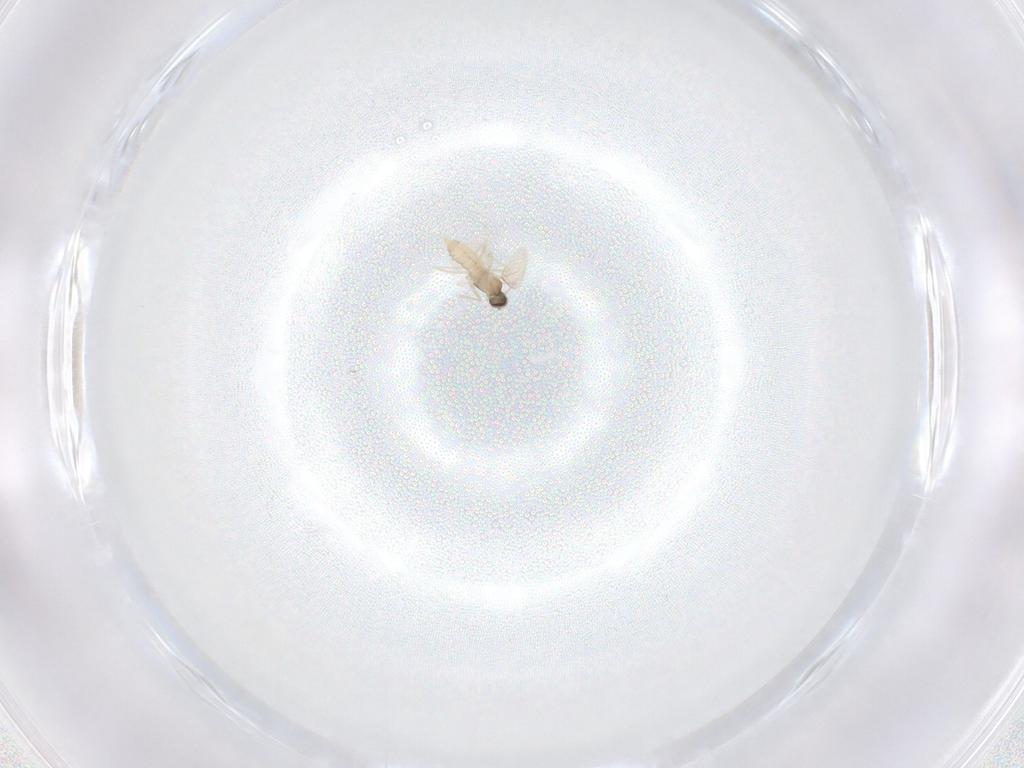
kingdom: Animalia
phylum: Arthropoda
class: Insecta
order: Diptera
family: Cecidomyiidae
